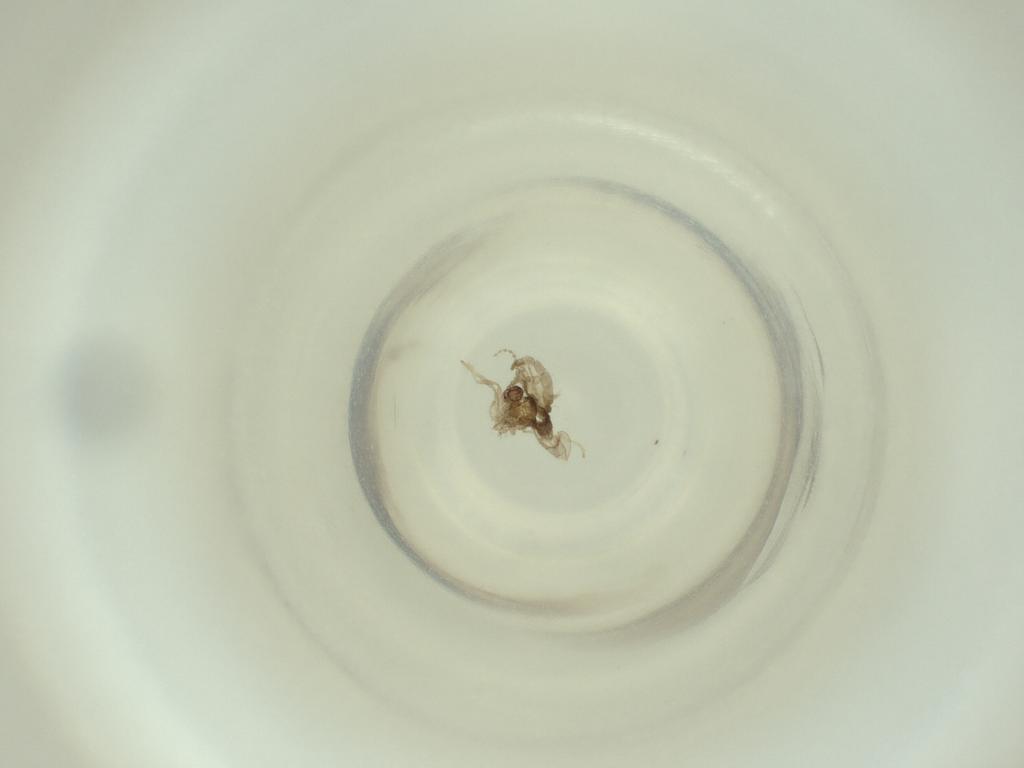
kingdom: Animalia
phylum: Arthropoda
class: Insecta
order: Diptera
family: Cecidomyiidae
